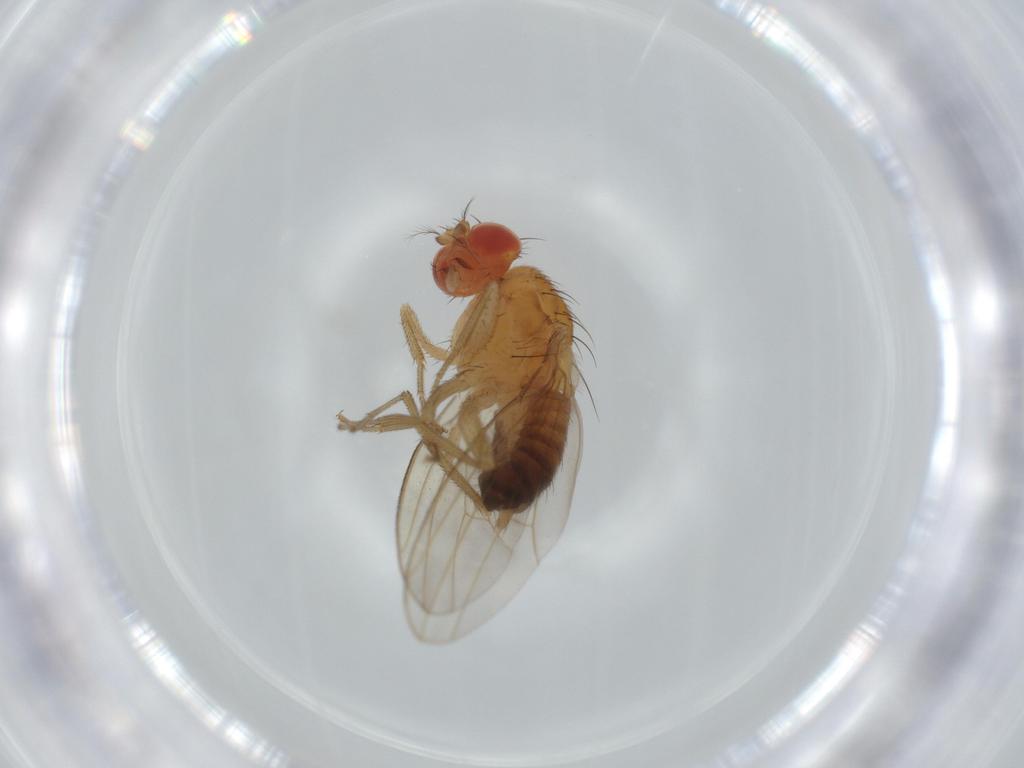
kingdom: Animalia
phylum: Arthropoda
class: Insecta
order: Diptera
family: Drosophilidae
